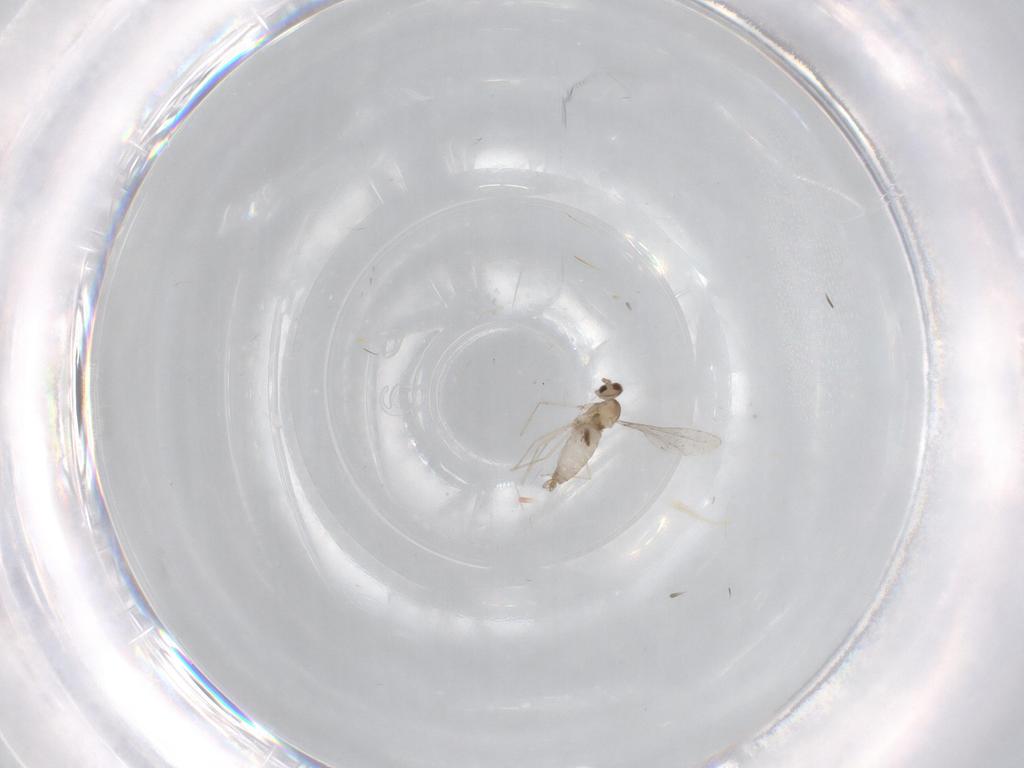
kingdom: Animalia
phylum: Arthropoda
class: Insecta
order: Diptera
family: Cecidomyiidae
